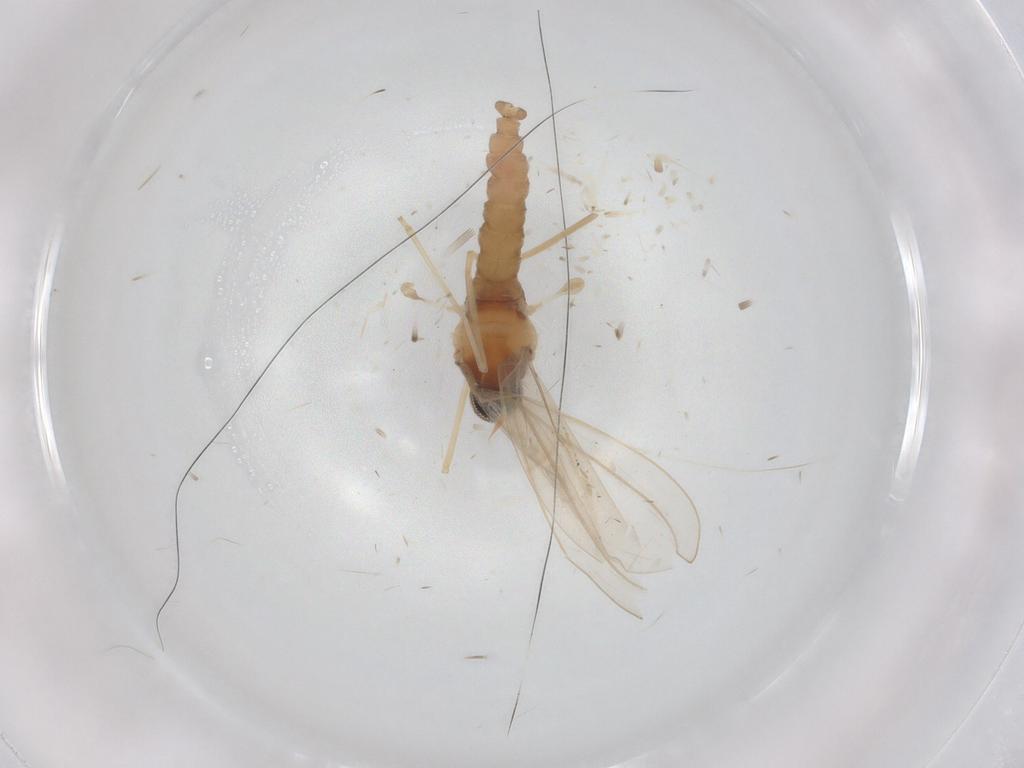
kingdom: Animalia
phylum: Arthropoda
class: Insecta
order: Diptera
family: Cecidomyiidae
